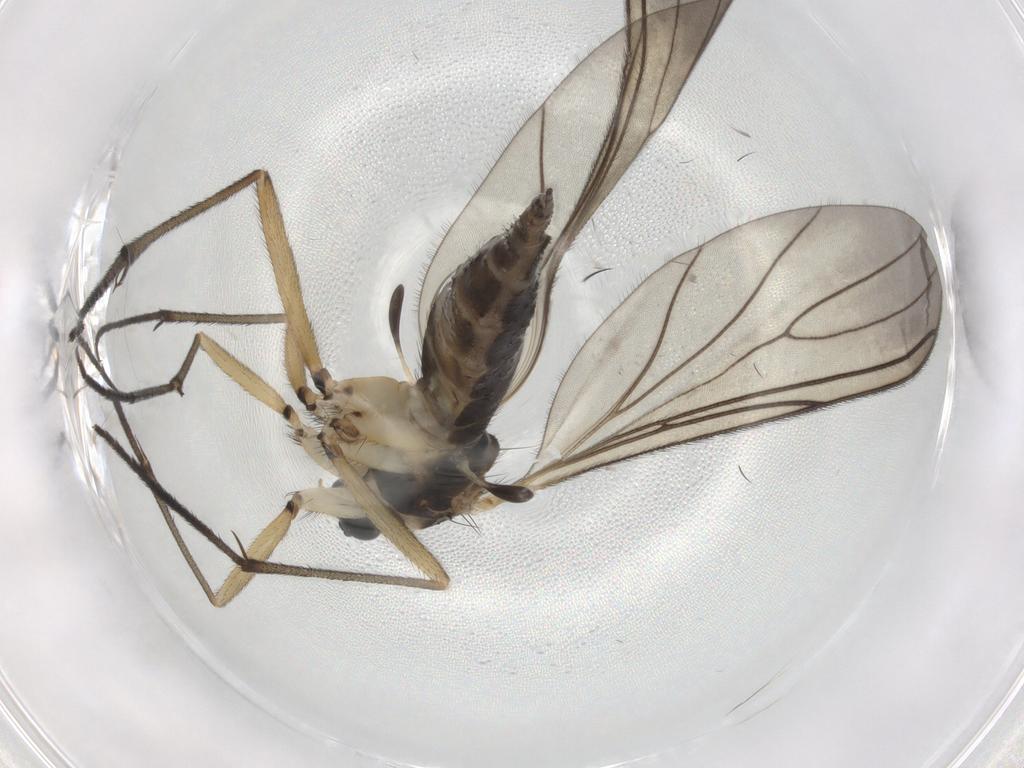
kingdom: Animalia
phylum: Arthropoda
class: Insecta
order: Diptera
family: Sciaridae
